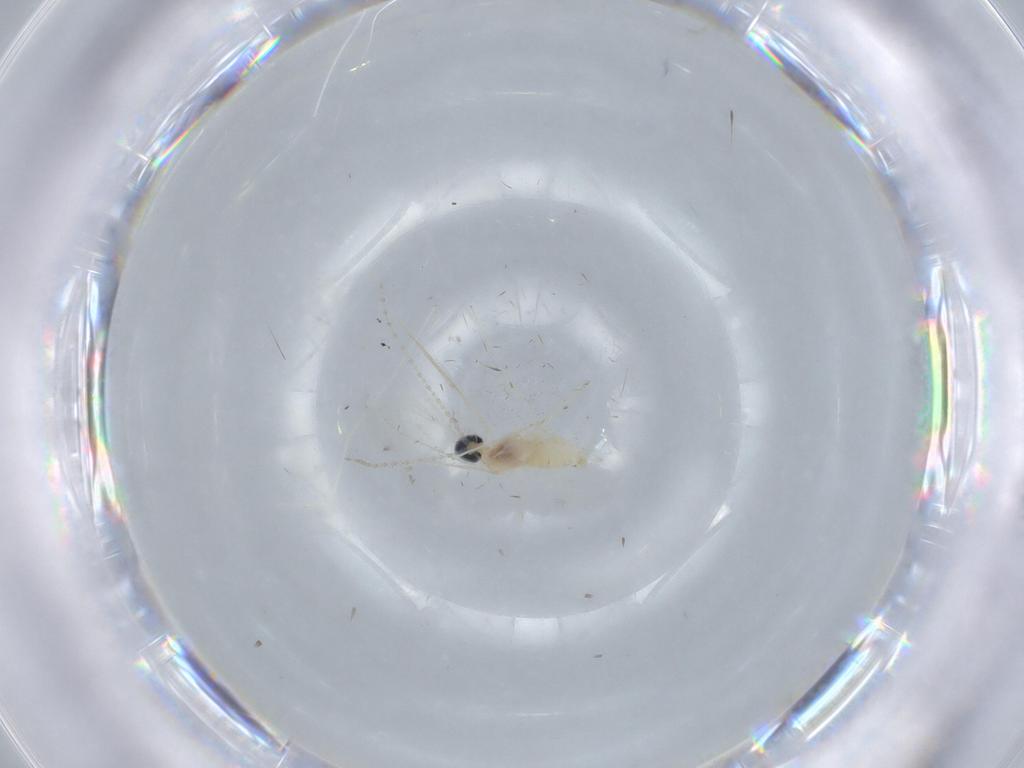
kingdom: Animalia
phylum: Arthropoda
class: Insecta
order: Diptera
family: Cecidomyiidae
